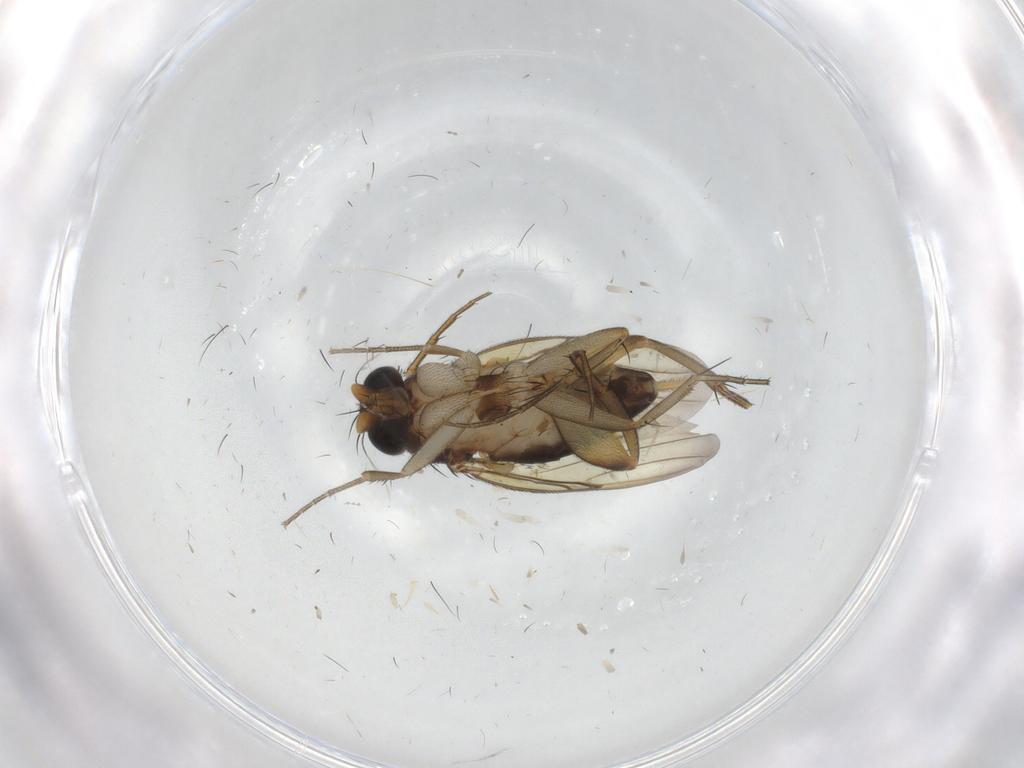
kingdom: Animalia
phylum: Arthropoda
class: Insecta
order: Diptera
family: Phoridae
